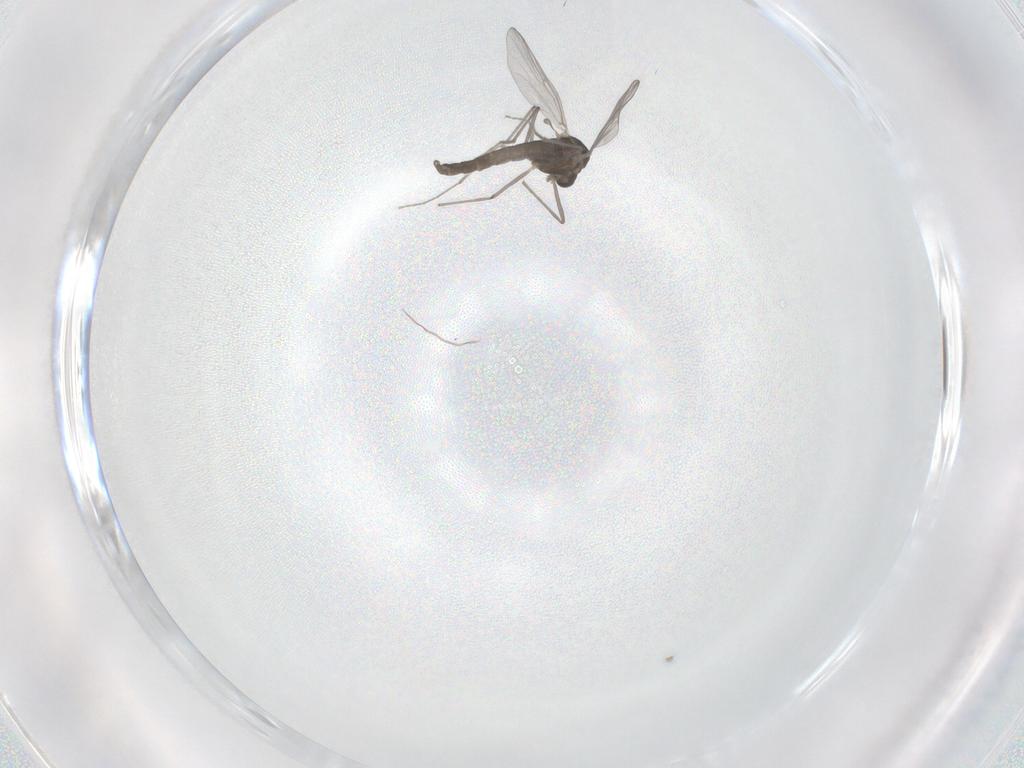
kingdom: Animalia
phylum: Arthropoda
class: Insecta
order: Diptera
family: Chironomidae
